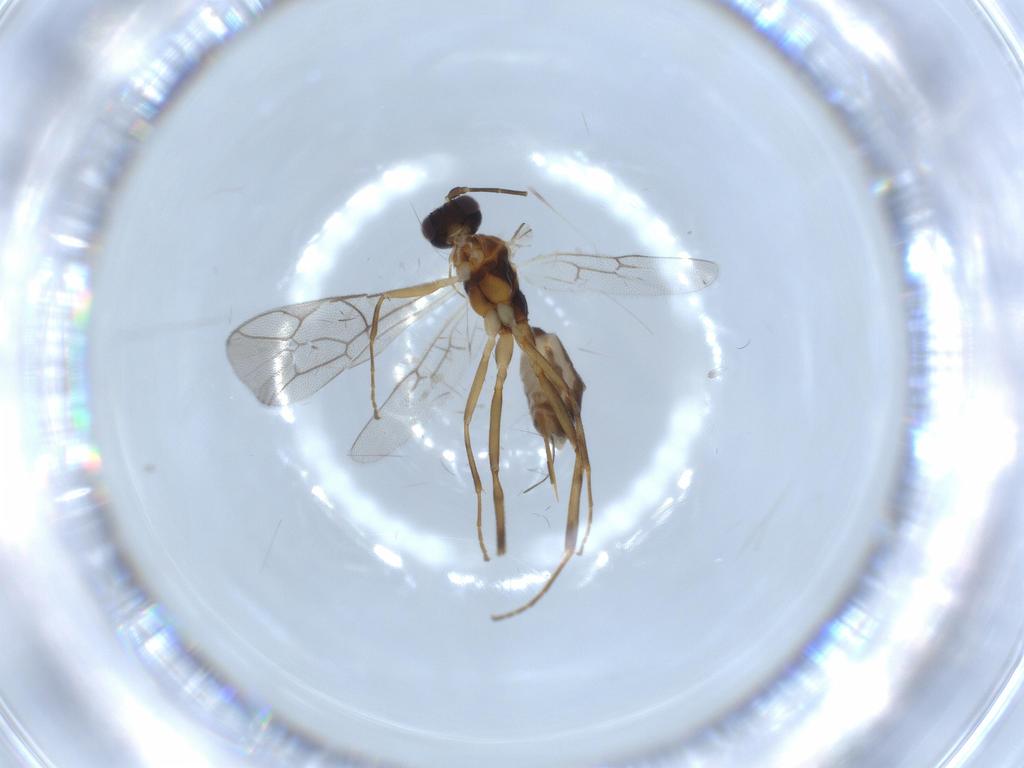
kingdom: Animalia
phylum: Arthropoda
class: Insecta
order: Hymenoptera
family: Ichneumonidae
